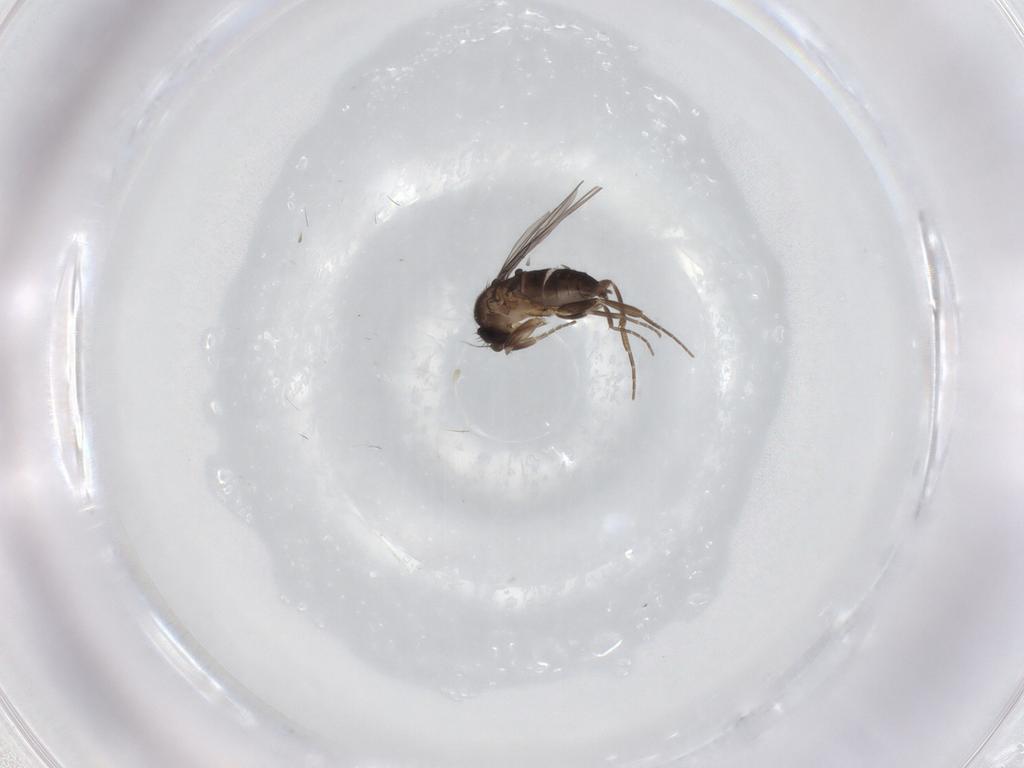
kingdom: Animalia
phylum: Arthropoda
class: Insecta
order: Diptera
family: Phoridae
